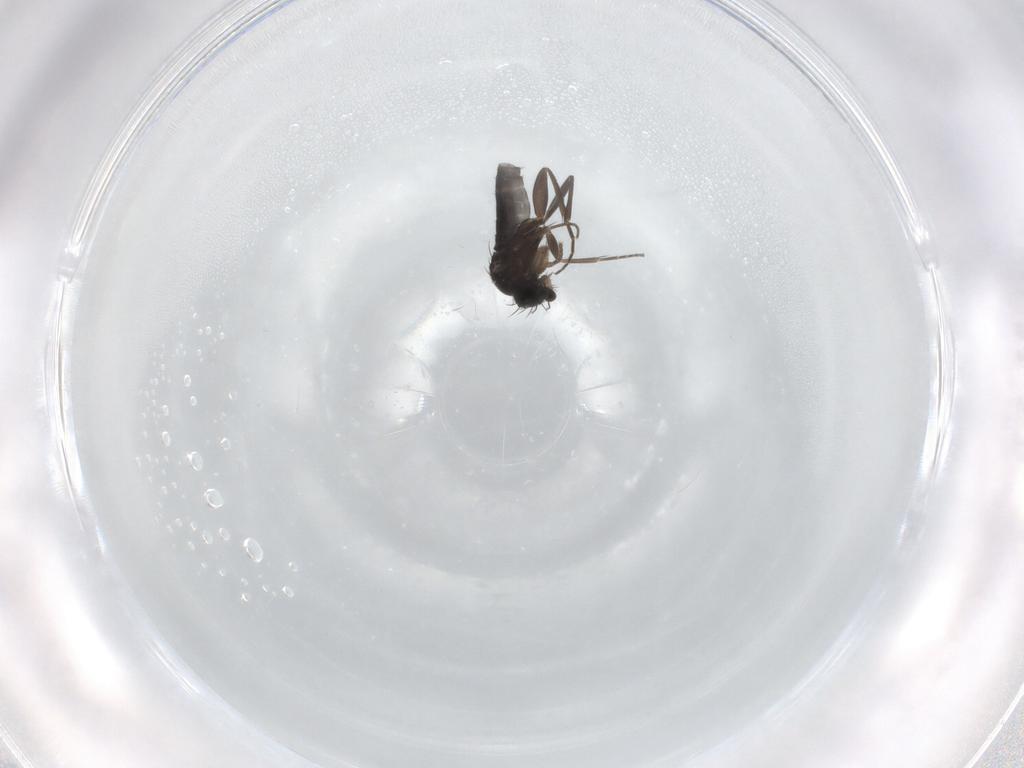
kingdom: Animalia
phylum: Arthropoda
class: Insecta
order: Diptera
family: Phoridae
